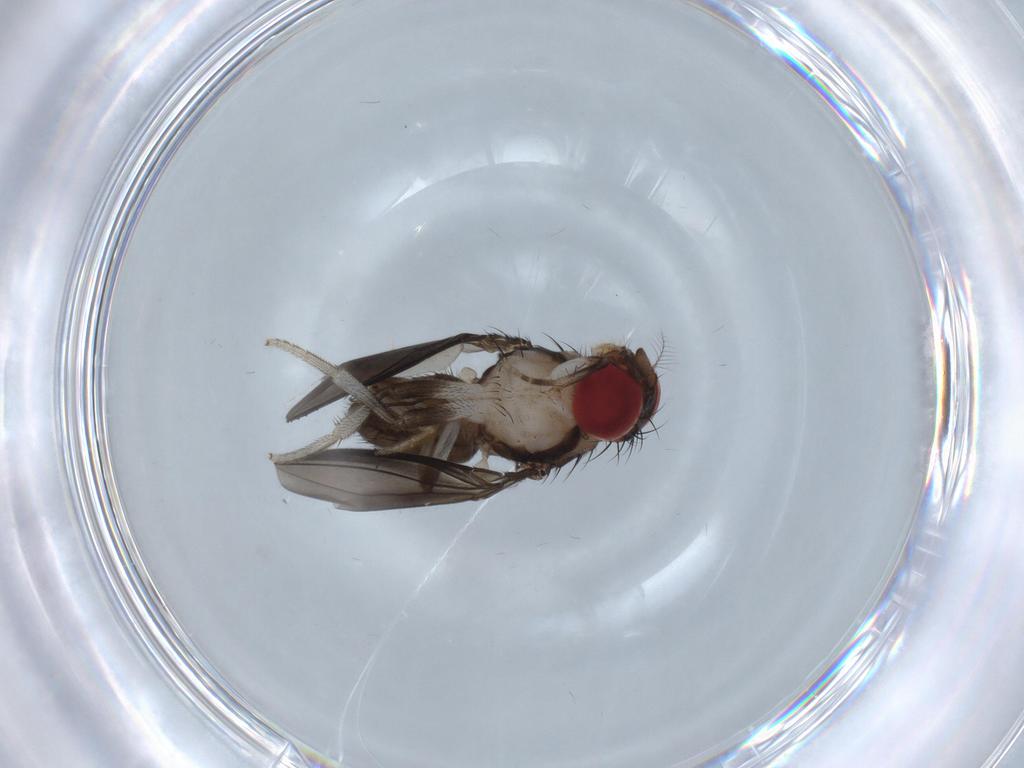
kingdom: Animalia
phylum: Arthropoda
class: Insecta
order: Diptera
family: Drosophilidae
